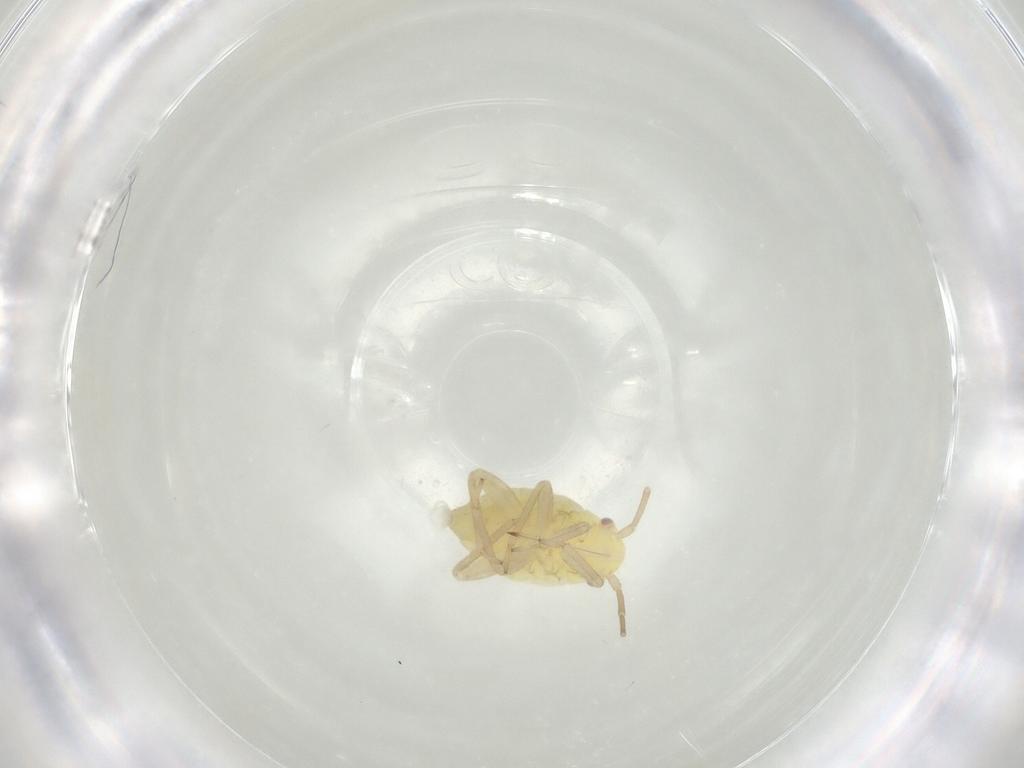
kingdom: Animalia
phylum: Arthropoda
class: Insecta
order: Hemiptera
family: Miridae
